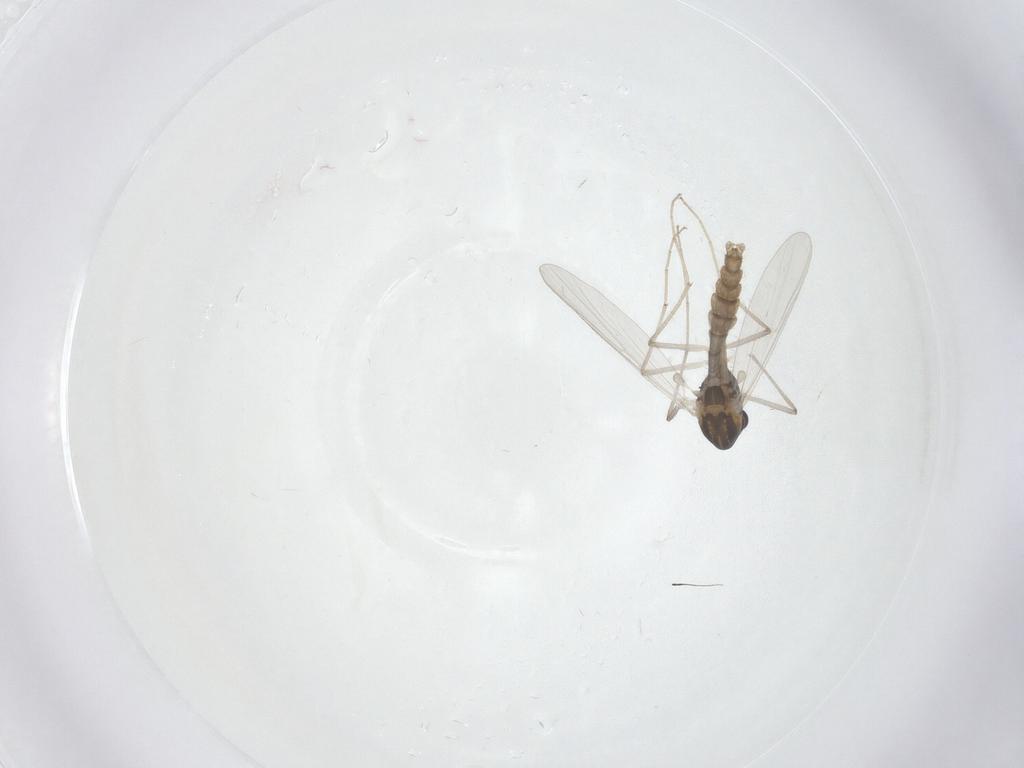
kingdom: Animalia
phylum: Arthropoda
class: Insecta
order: Diptera
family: Chironomidae
